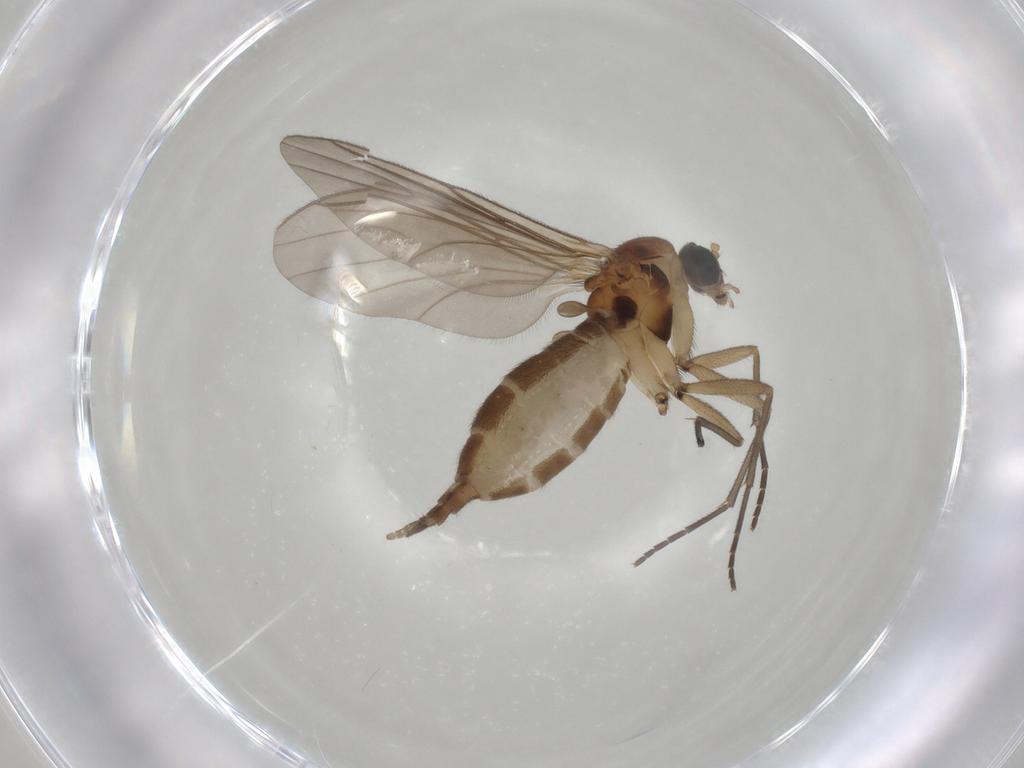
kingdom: Animalia
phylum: Arthropoda
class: Insecta
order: Diptera
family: Sciaridae
